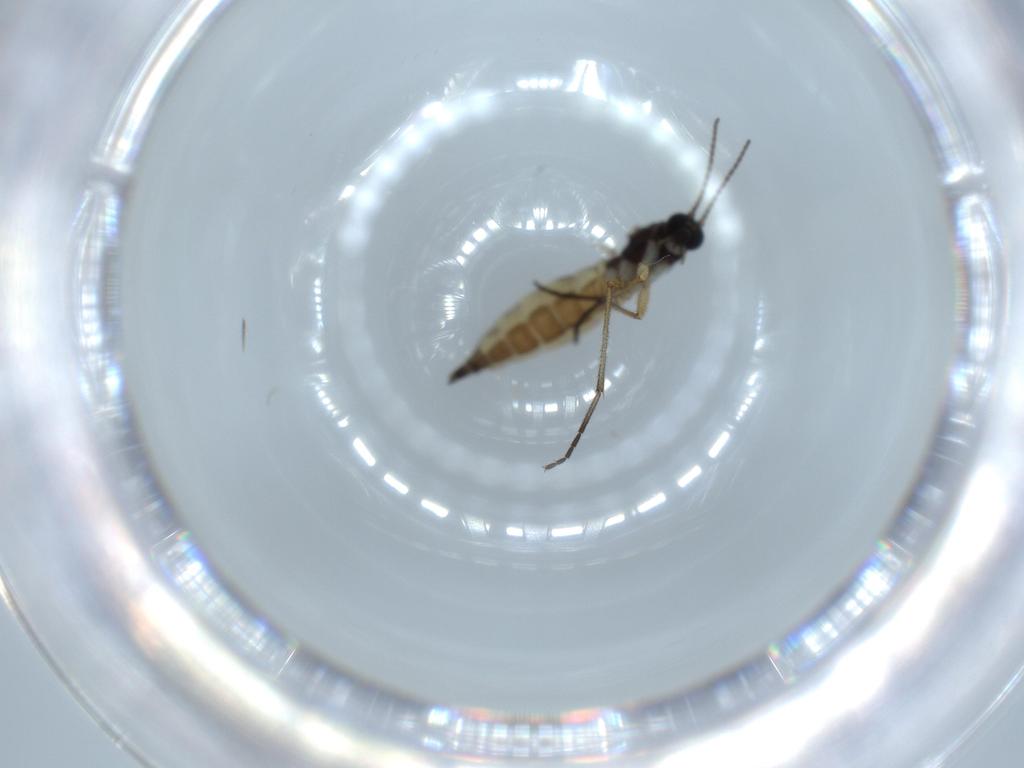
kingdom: Animalia
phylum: Arthropoda
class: Insecta
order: Diptera
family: Sciaridae
